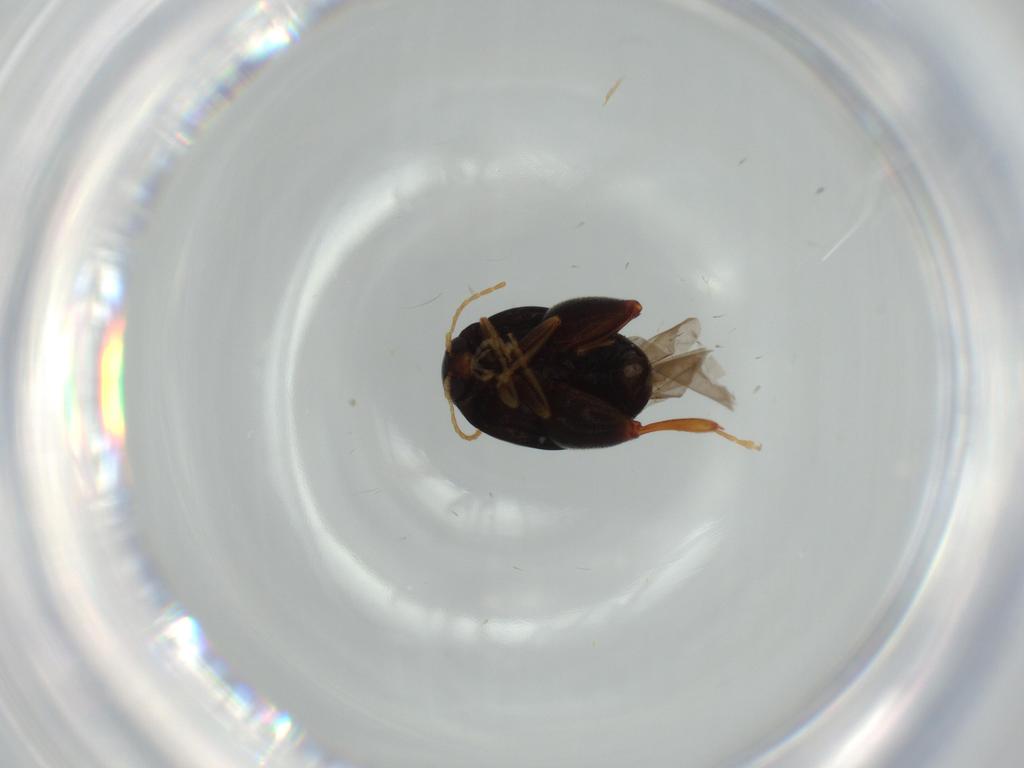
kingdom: Animalia
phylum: Arthropoda
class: Insecta
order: Coleoptera
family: Chrysomelidae
